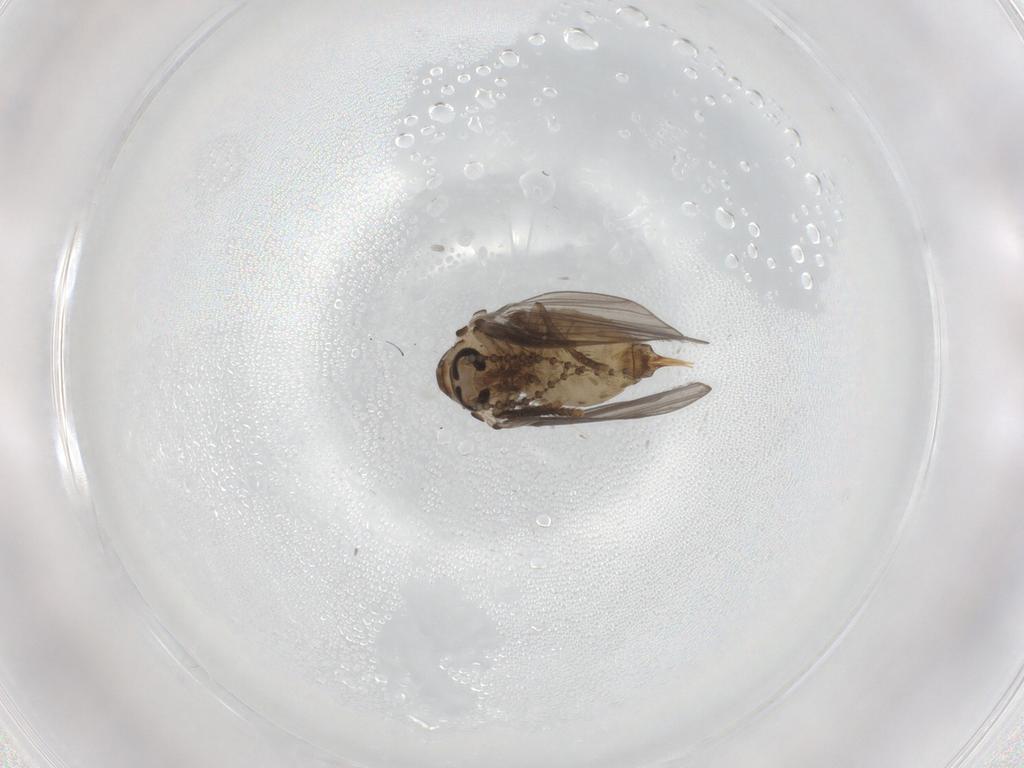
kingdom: Animalia
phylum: Arthropoda
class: Insecta
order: Diptera
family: Psychodidae
